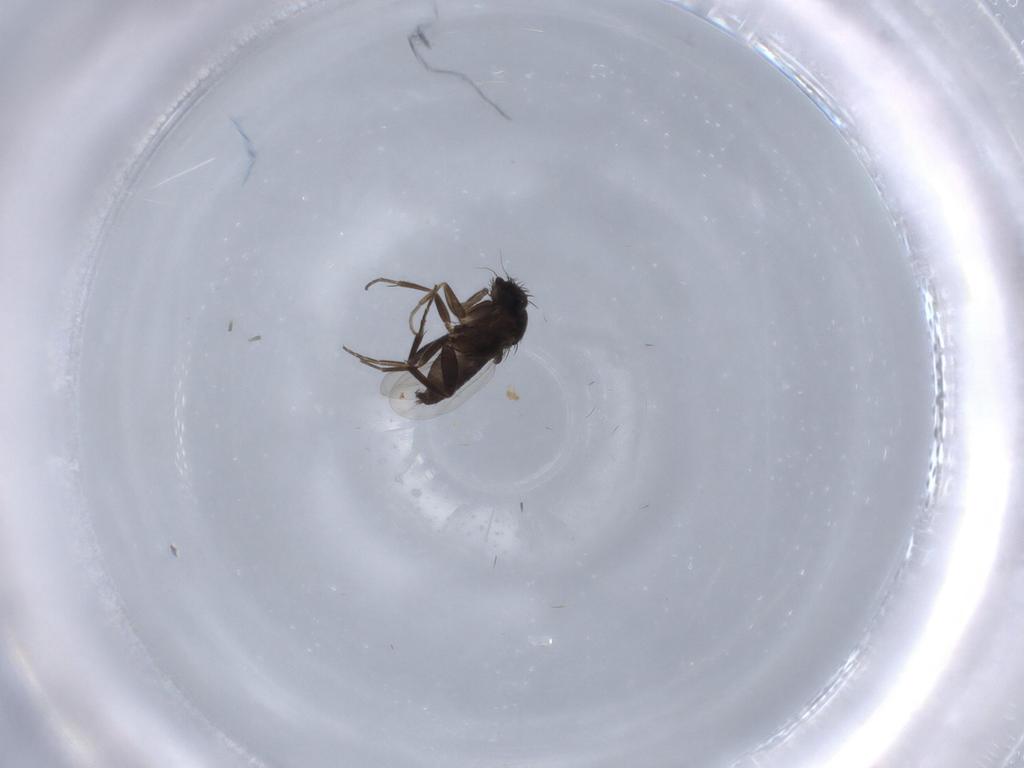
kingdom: Animalia
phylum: Arthropoda
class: Insecta
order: Diptera
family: Phoridae
